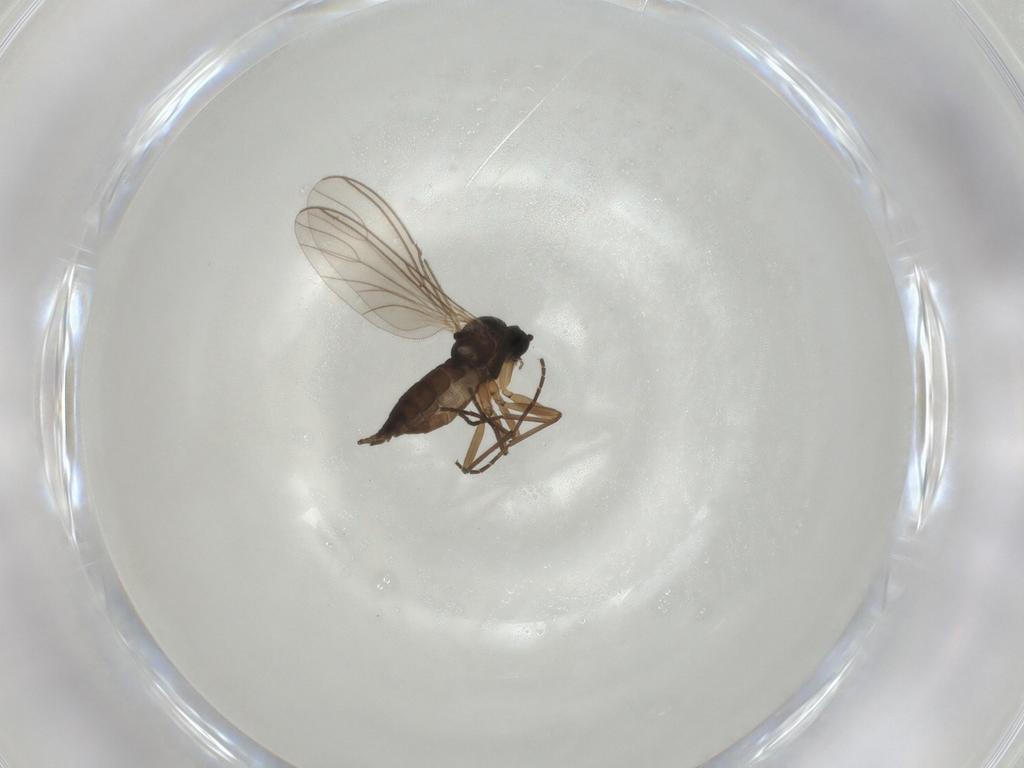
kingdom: Animalia
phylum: Arthropoda
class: Insecta
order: Diptera
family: Sciaridae
